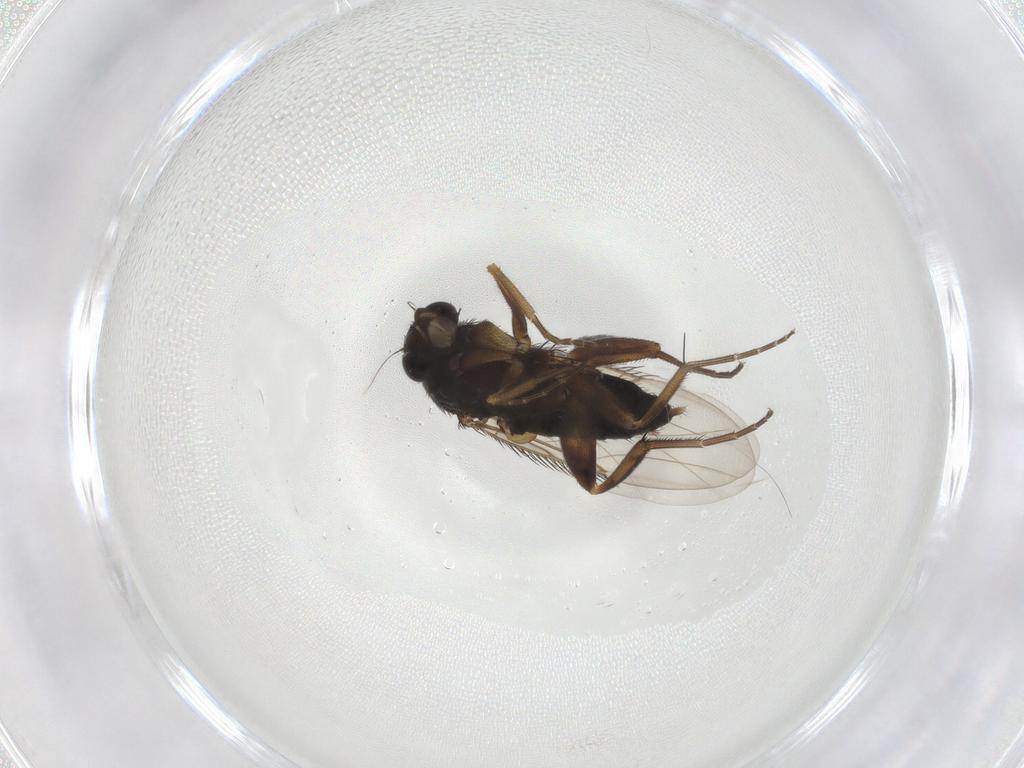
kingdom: Animalia
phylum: Arthropoda
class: Insecta
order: Diptera
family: Phoridae
